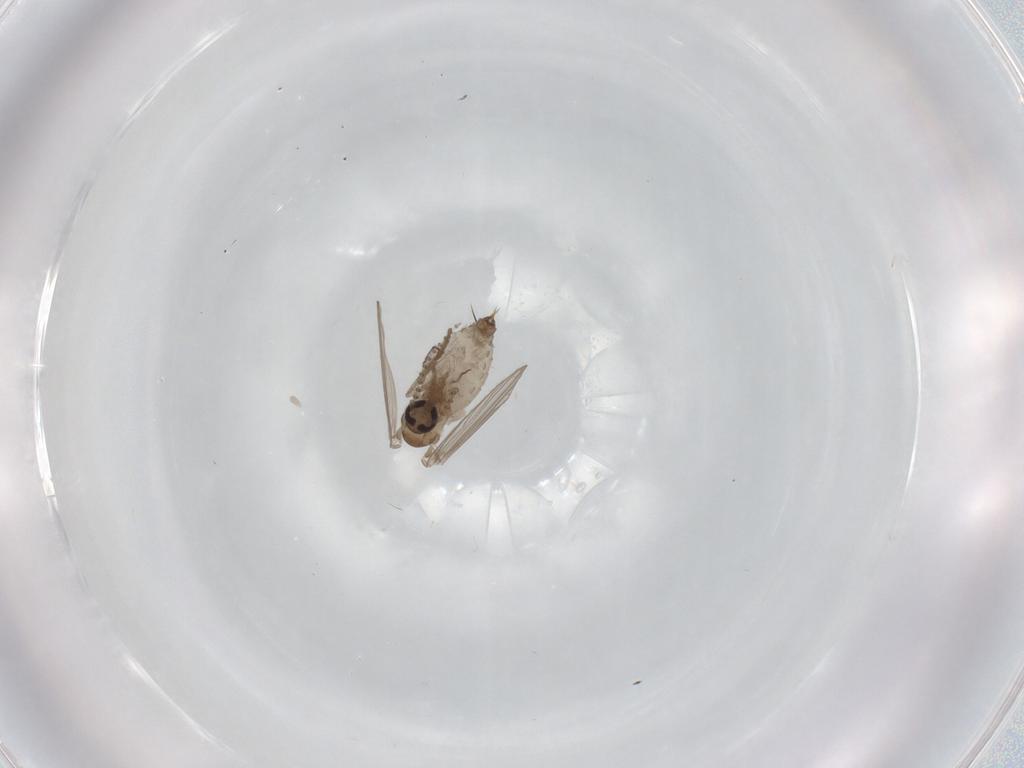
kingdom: Animalia
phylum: Arthropoda
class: Insecta
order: Diptera
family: Psychodidae
